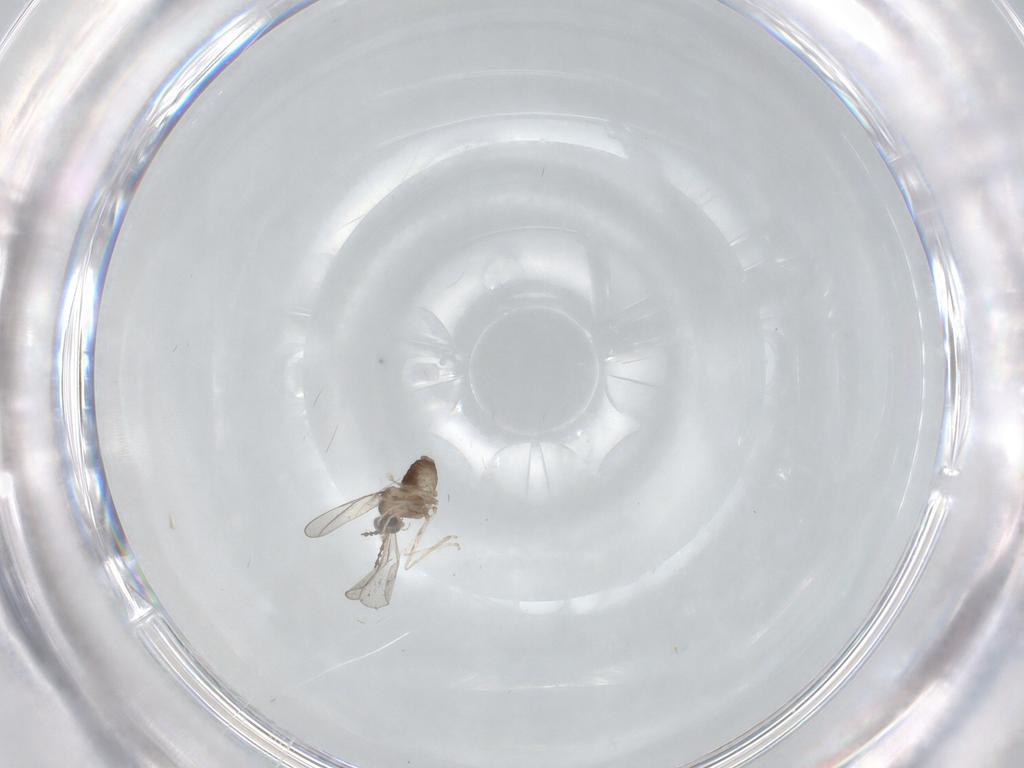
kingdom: Animalia
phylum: Arthropoda
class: Insecta
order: Diptera
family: Cecidomyiidae
